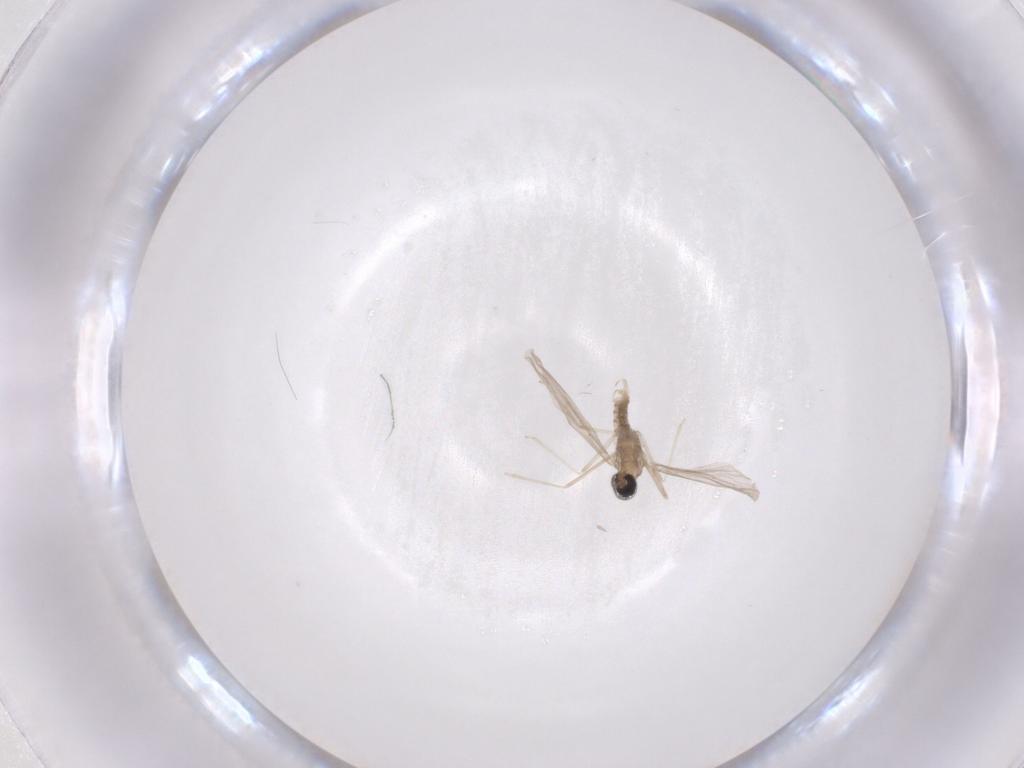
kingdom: Animalia
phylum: Arthropoda
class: Insecta
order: Diptera
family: Cecidomyiidae
